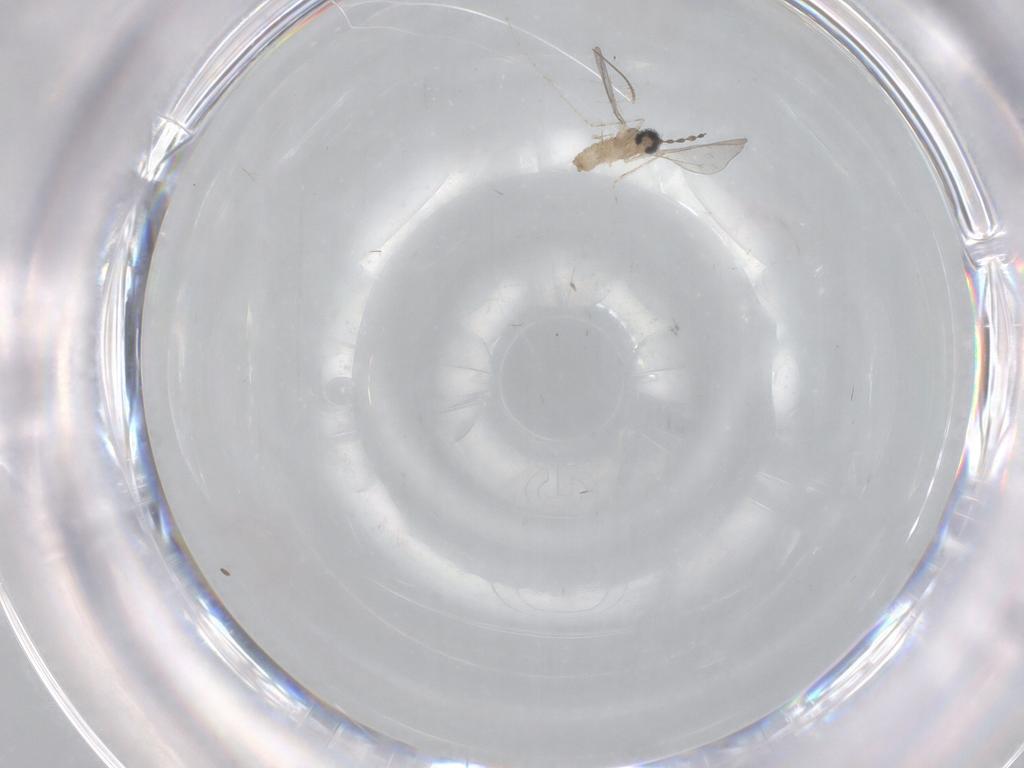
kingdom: Animalia
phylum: Arthropoda
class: Insecta
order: Diptera
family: Cecidomyiidae
